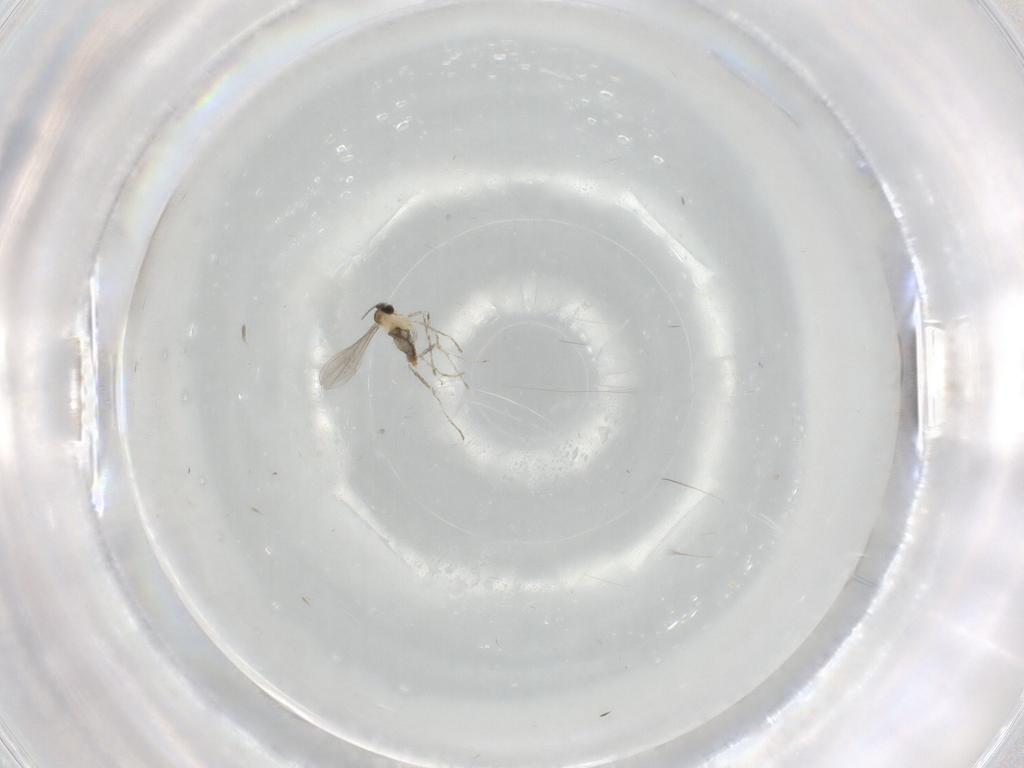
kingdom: Animalia
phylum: Arthropoda
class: Insecta
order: Diptera
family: Cecidomyiidae
